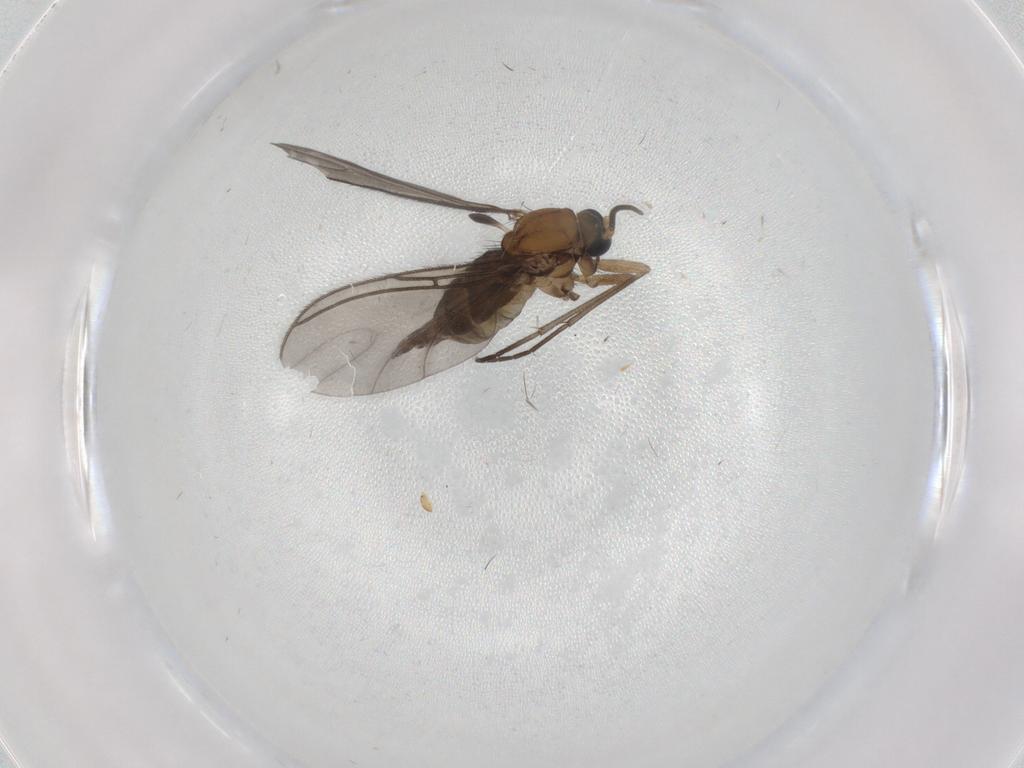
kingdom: Animalia
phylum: Arthropoda
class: Insecta
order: Diptera
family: Sciaridae
